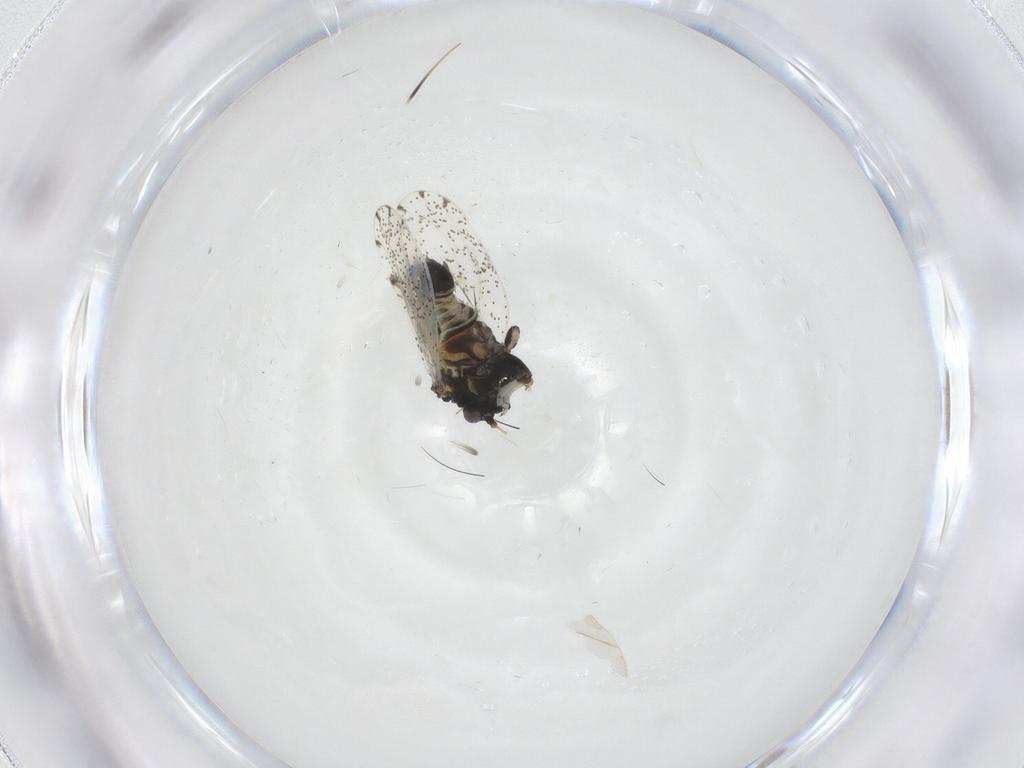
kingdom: Animalia
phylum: Arthropoda
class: Insecta
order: Hemiptera
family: Aphalaridae
